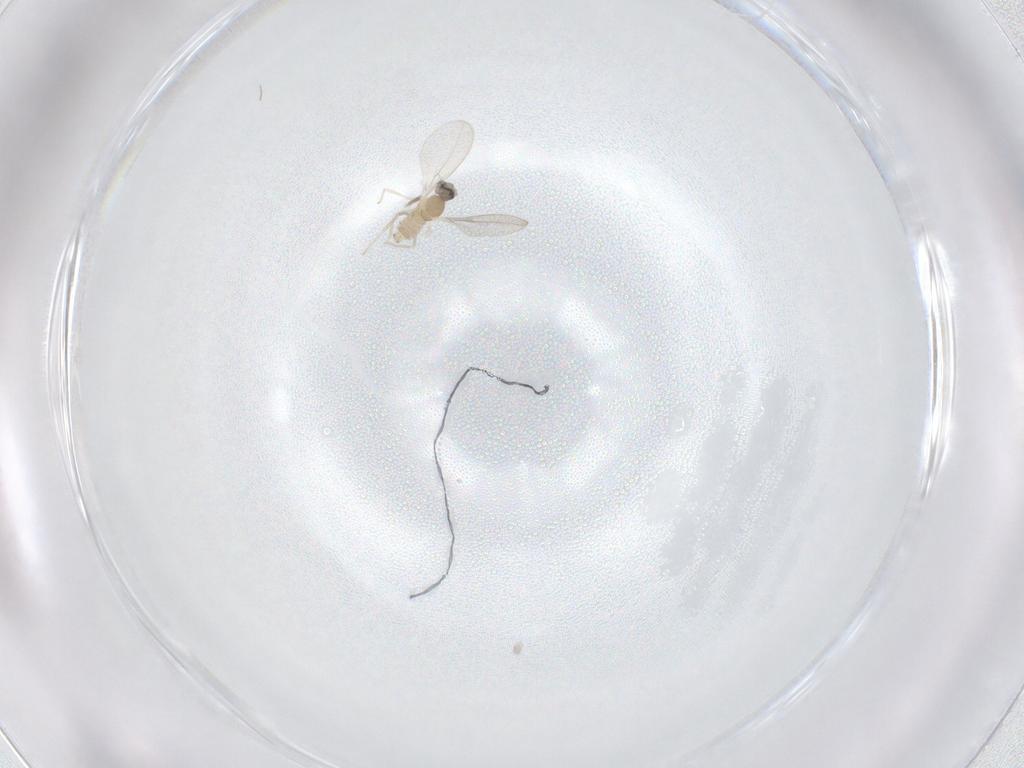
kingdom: Animalia
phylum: Arthropoda
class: Insecta
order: Diptera
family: Cecidomyiidae
